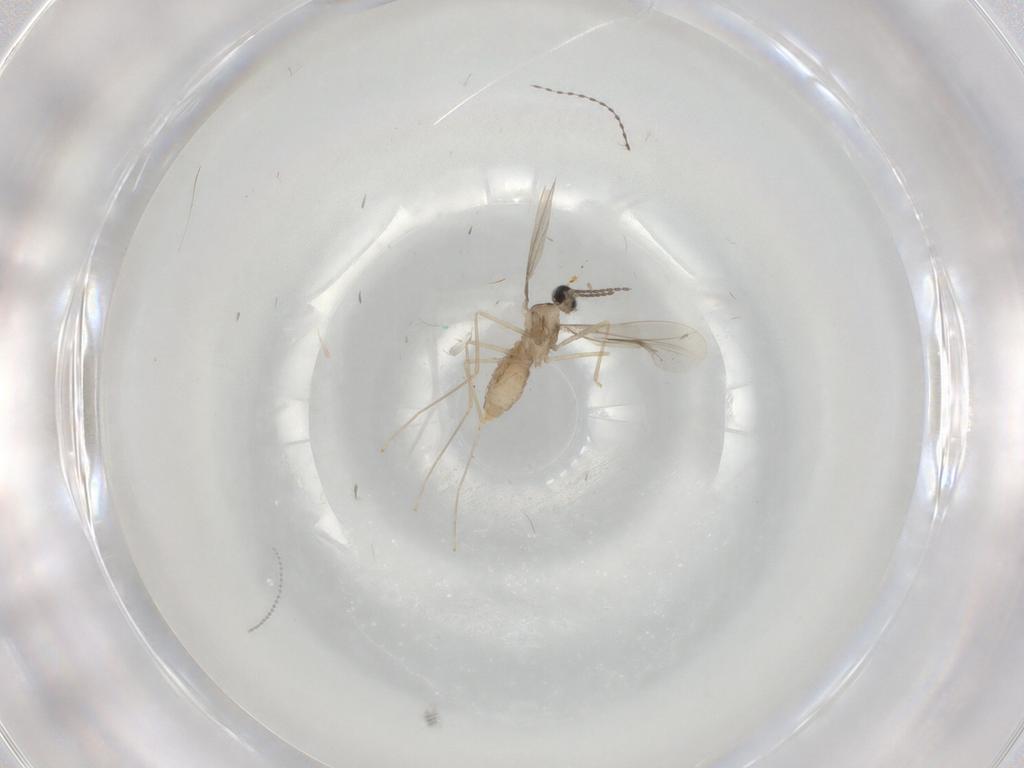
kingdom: Animalia
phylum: Arthropoda
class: Insecta
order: Diptera
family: Cecidomyiidae
